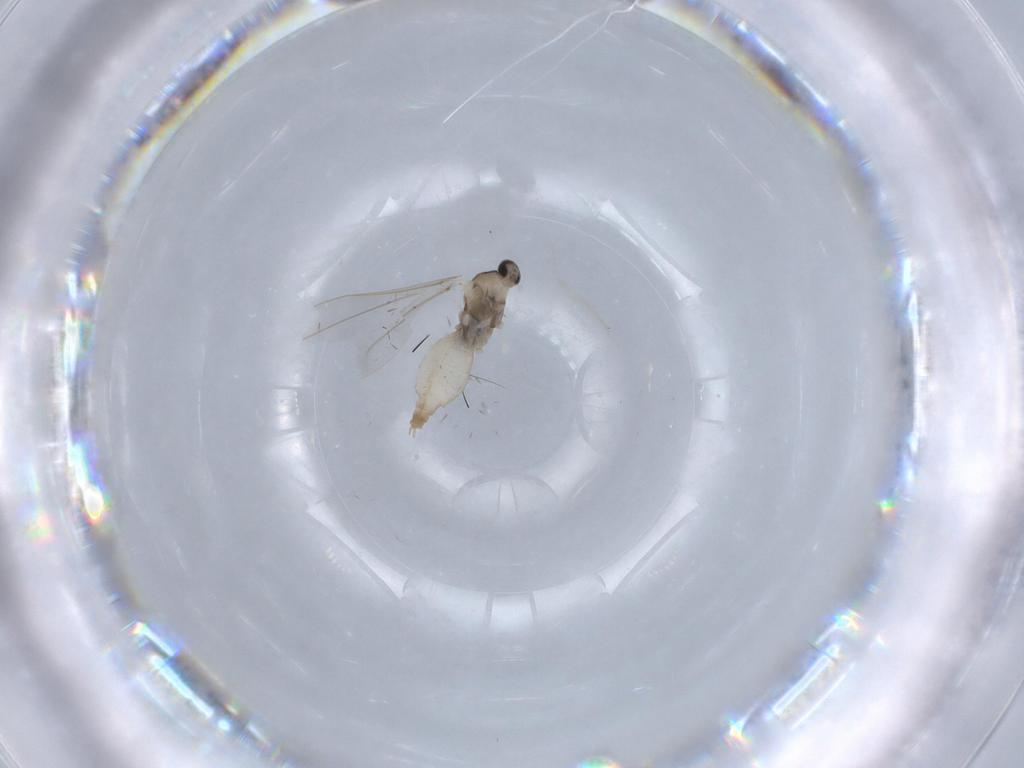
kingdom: Animalia
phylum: Arthropoda
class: Insecta
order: Diptera
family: Cecidomyiidae
